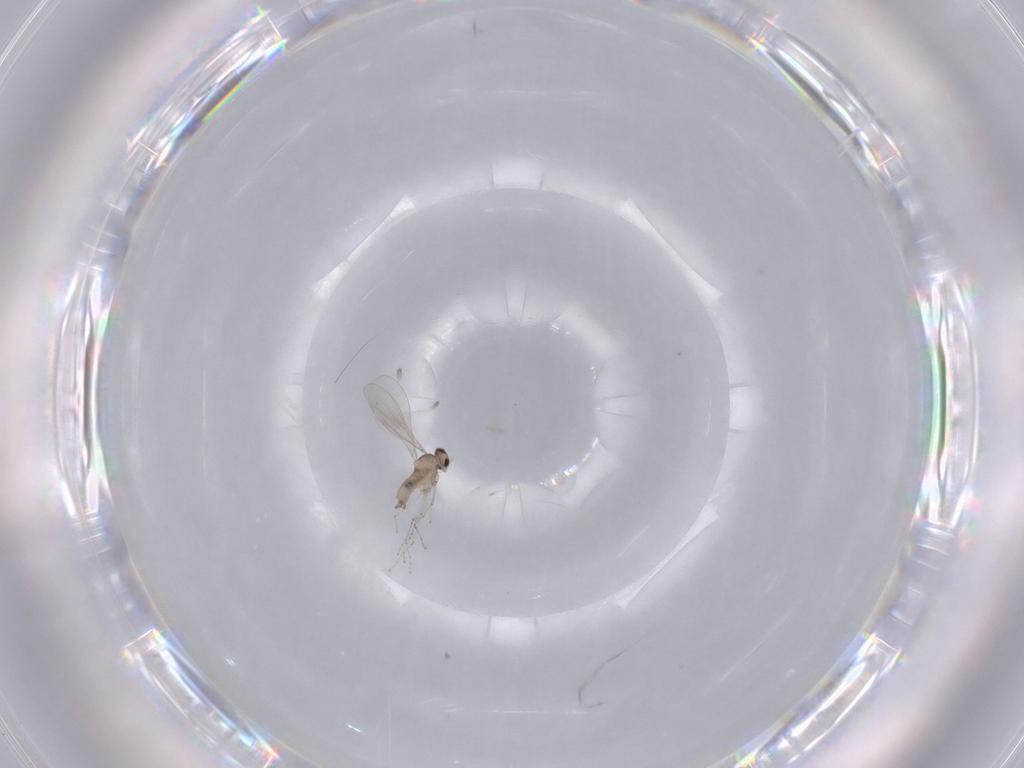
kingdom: Animalia
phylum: Arthropoda
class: Insecta
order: Diptera
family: Cecidomyiidae
